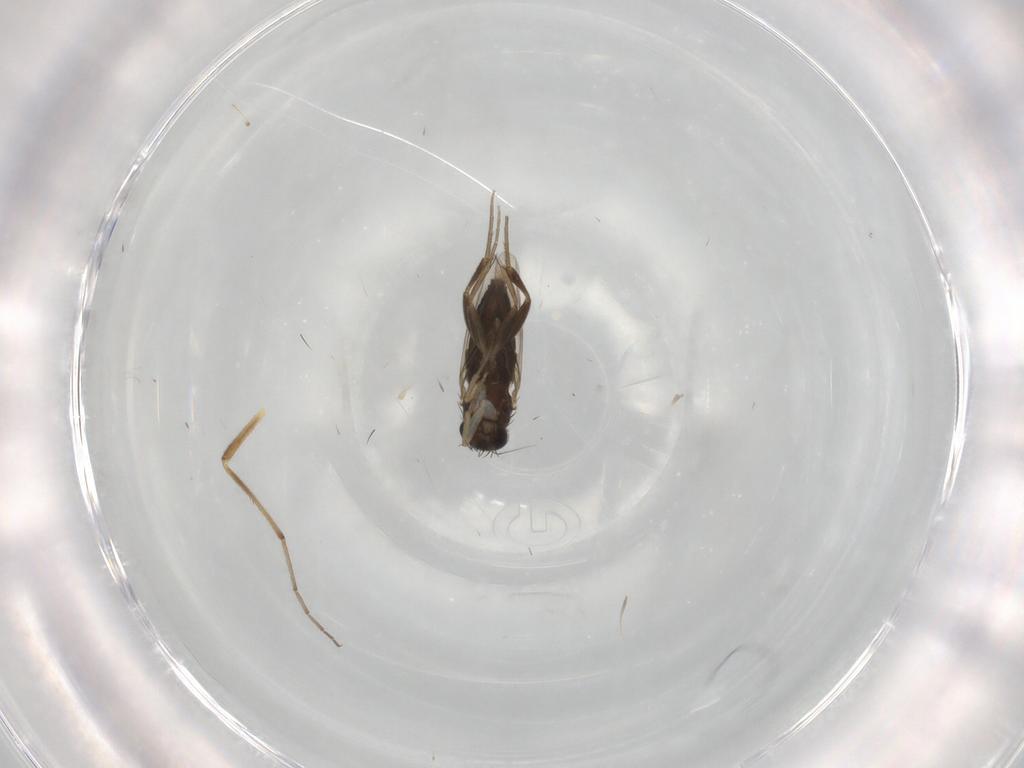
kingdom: Animalia
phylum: Arthropoda
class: Insecta
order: Diptera
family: Phoridae
